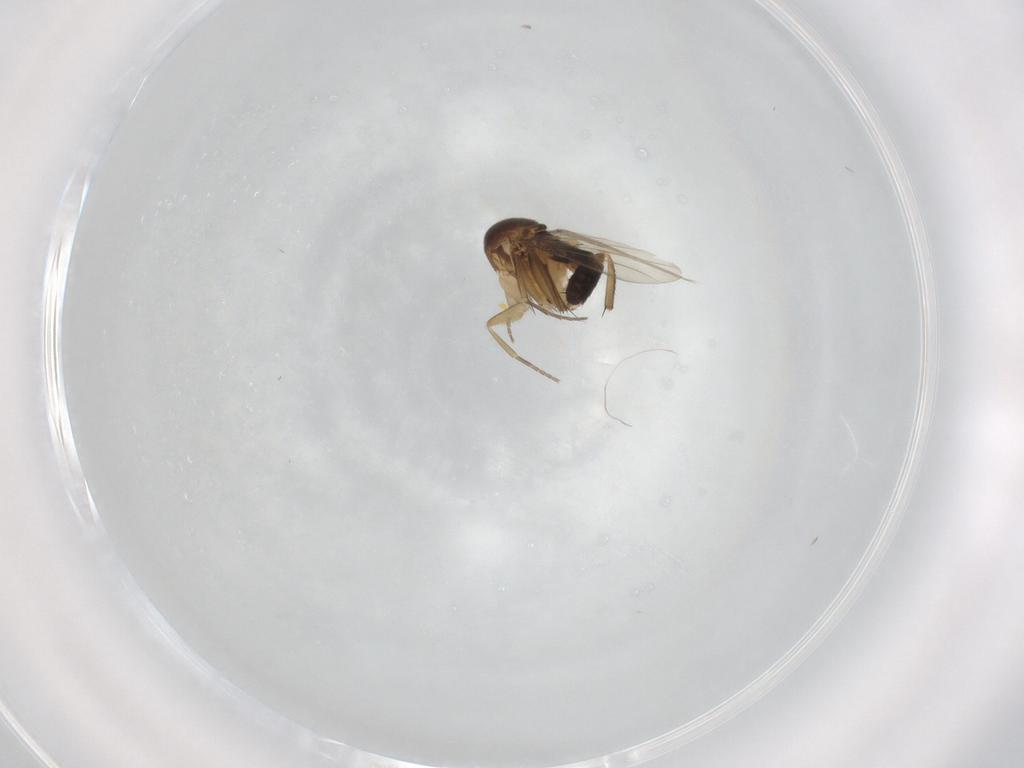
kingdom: Animalia
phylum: Arthropoda
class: Insecta
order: Diptera
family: Phoridae
